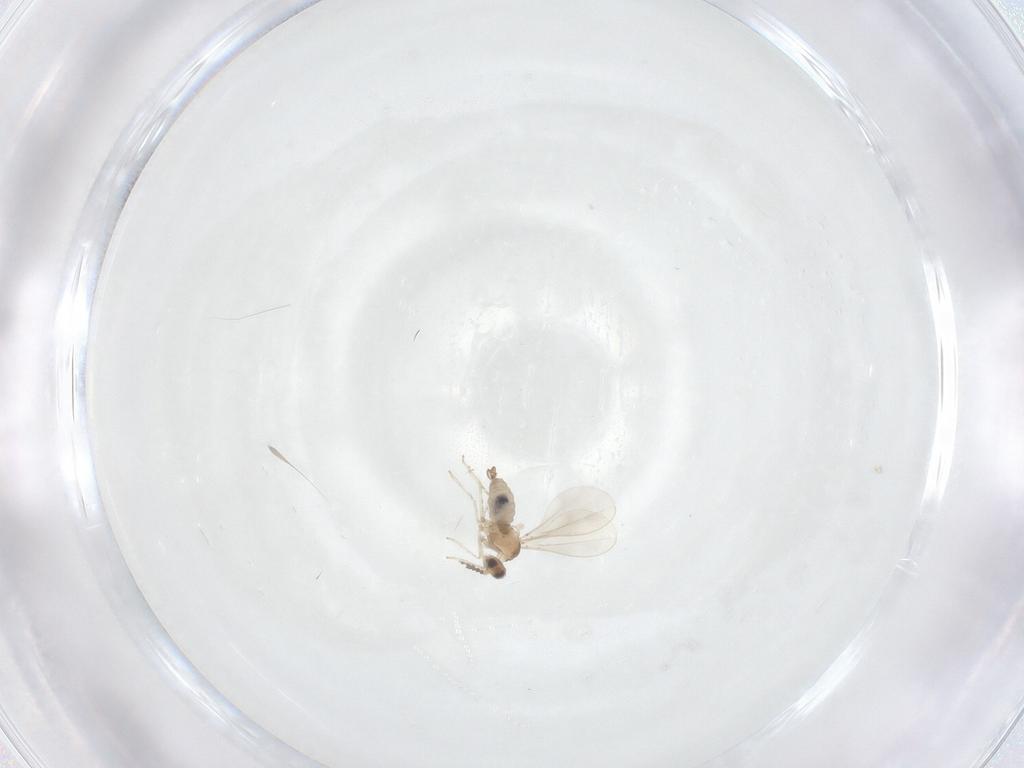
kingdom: Animalia
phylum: Arthropoda
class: Insecta
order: Diptera
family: Cecidomyiidae
